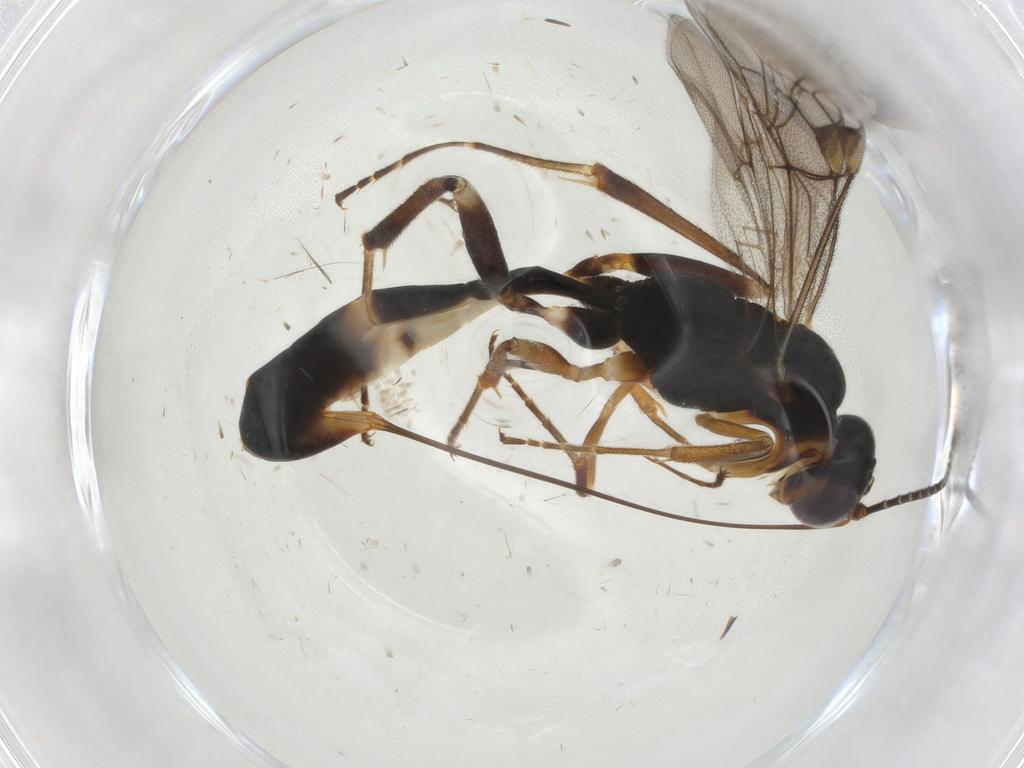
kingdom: Animalia
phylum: Arthropoda
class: Insecta
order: Hymenoptera
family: Ichneumonidae
